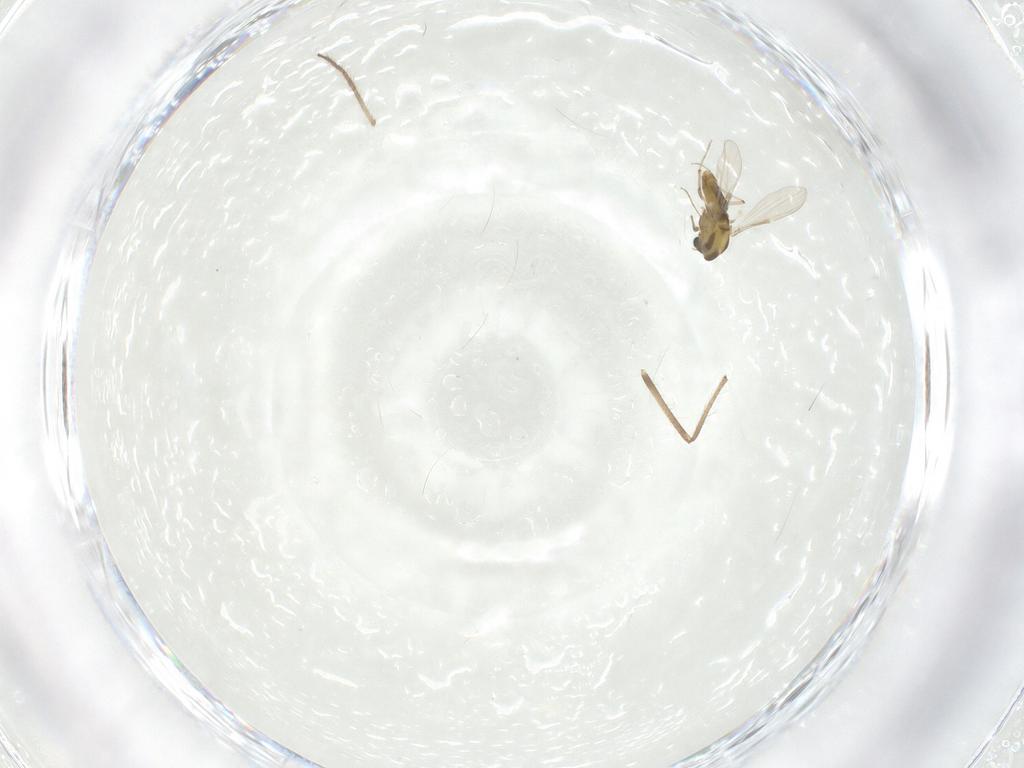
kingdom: Animalia
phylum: Arthropoda
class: Insecta
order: Diptera
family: Chironomidae
